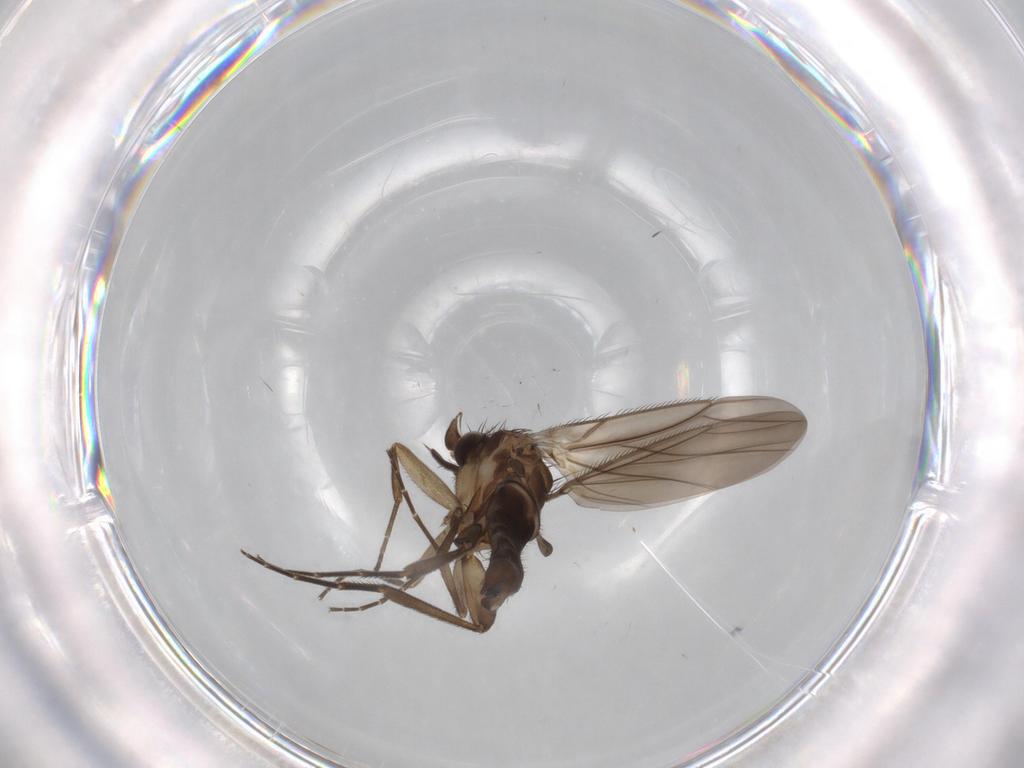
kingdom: Animalia
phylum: Arthropoda
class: Insecta
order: Diptera
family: Phoridae
